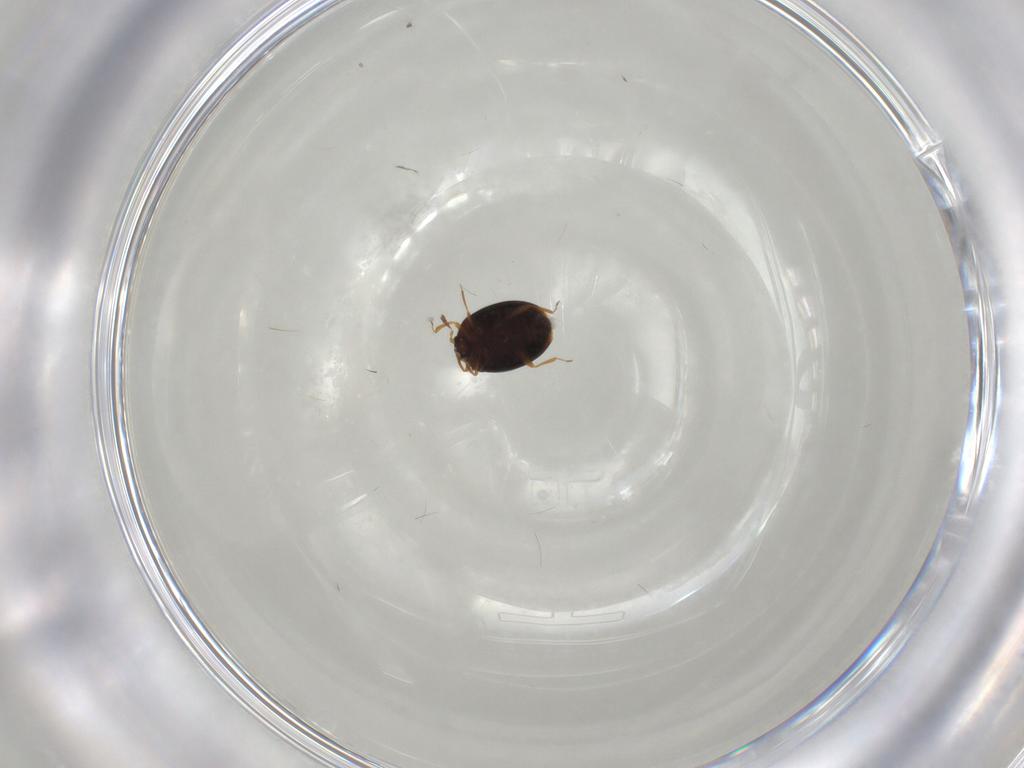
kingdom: Animalia
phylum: Arthropoda
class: Insecta
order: Coleoptera
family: Corylophidae
